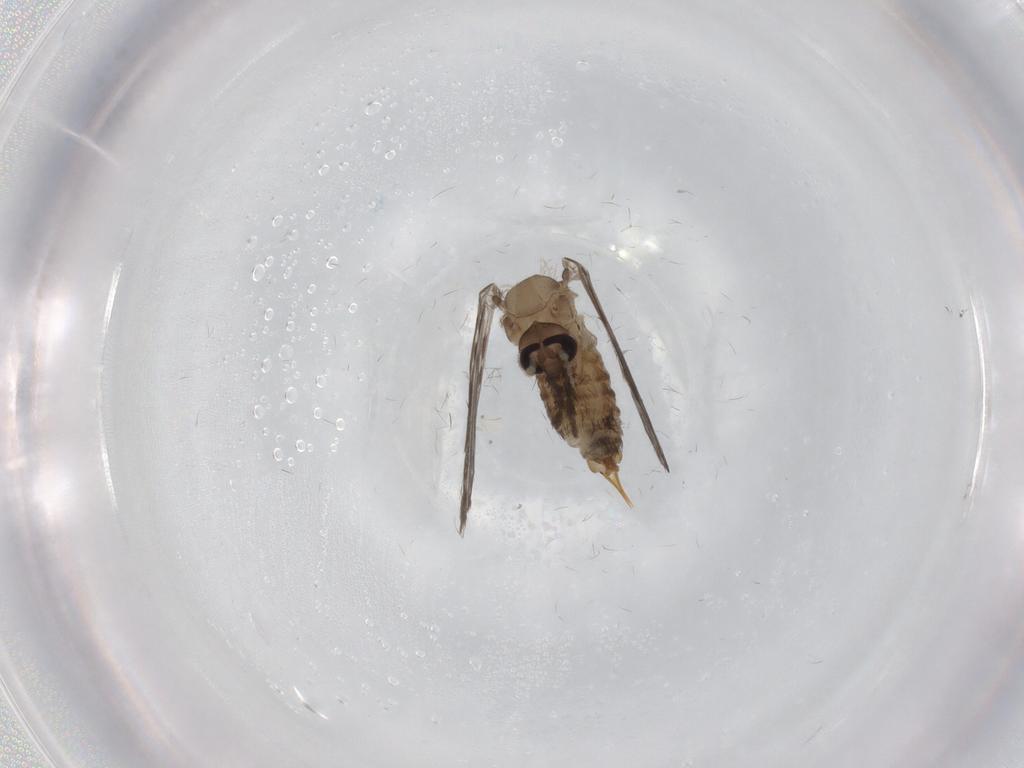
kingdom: Animalia
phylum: Arthropoda
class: Insecta
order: Diptera
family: Psychodidae
